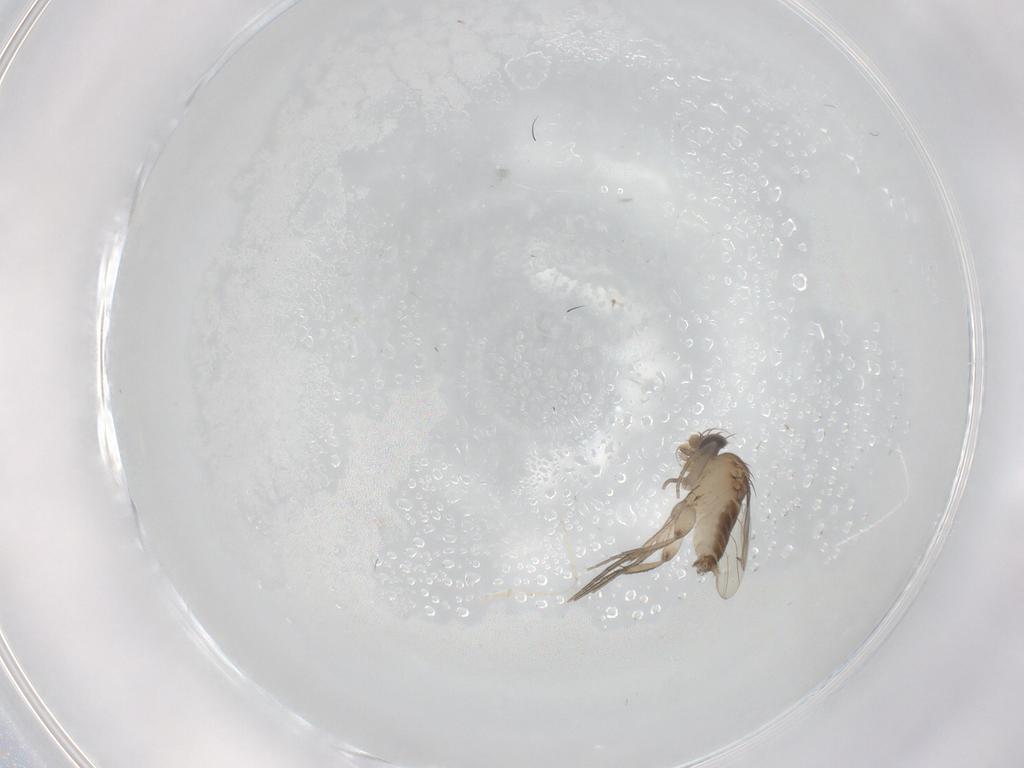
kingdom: Animalia
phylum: Arthropoda
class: Insecta
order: Diptera
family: Phoridae
